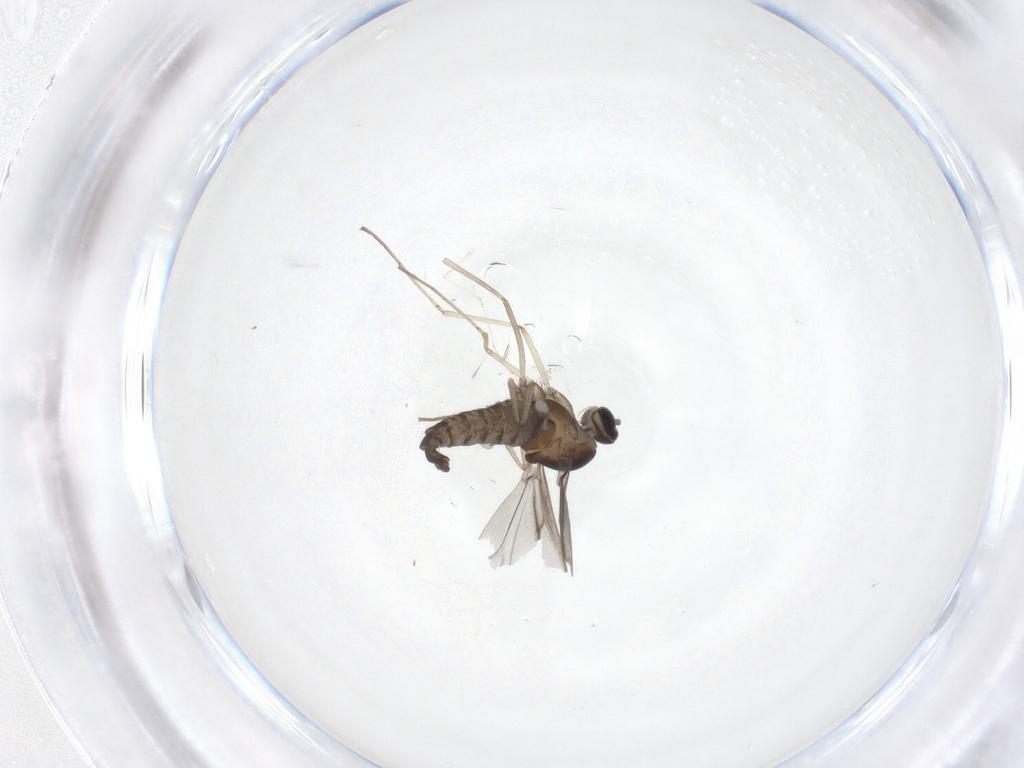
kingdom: Animalia
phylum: Arthropoda
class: Insecta
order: Diptera
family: Cecidomyiidae
